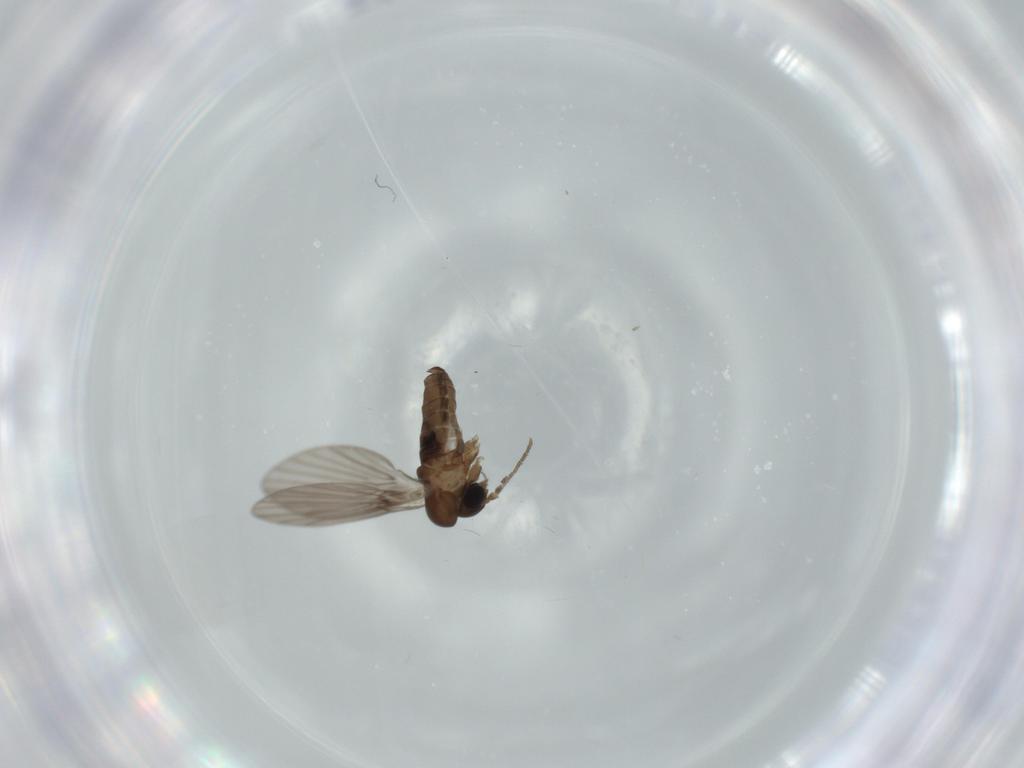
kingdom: Animalia
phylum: Arthropoda
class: Insecta
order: Diptera
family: Psychodidae
